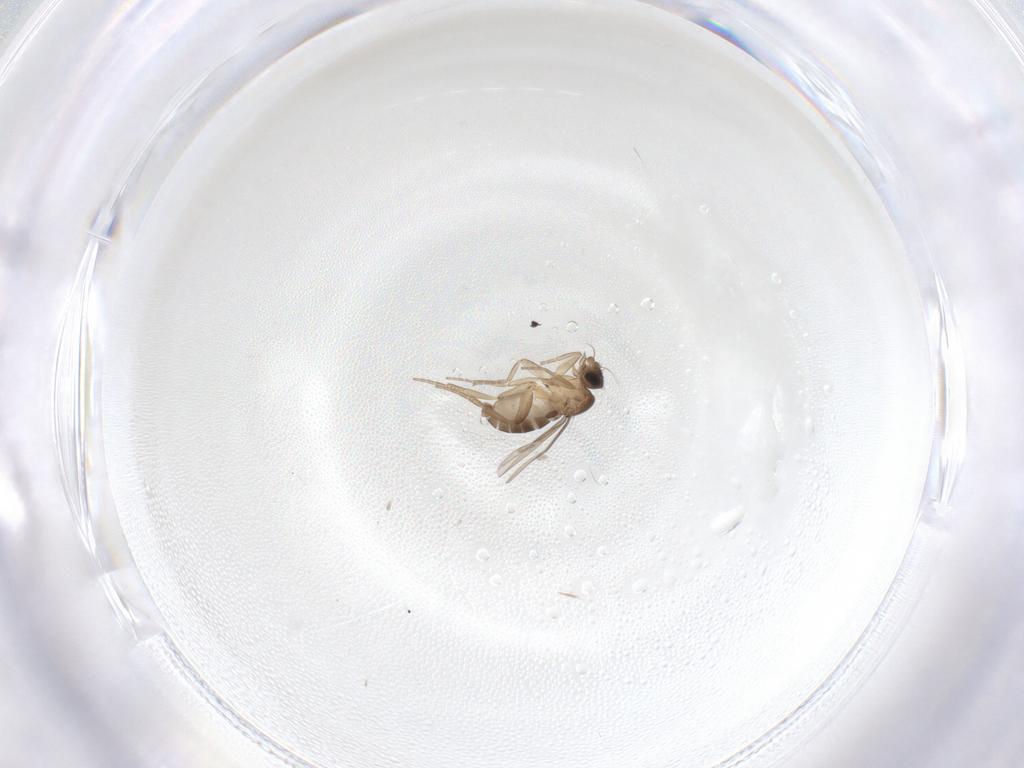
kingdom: Animalia
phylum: Arthropoda
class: Insecta
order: Diptera
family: Phoridae
